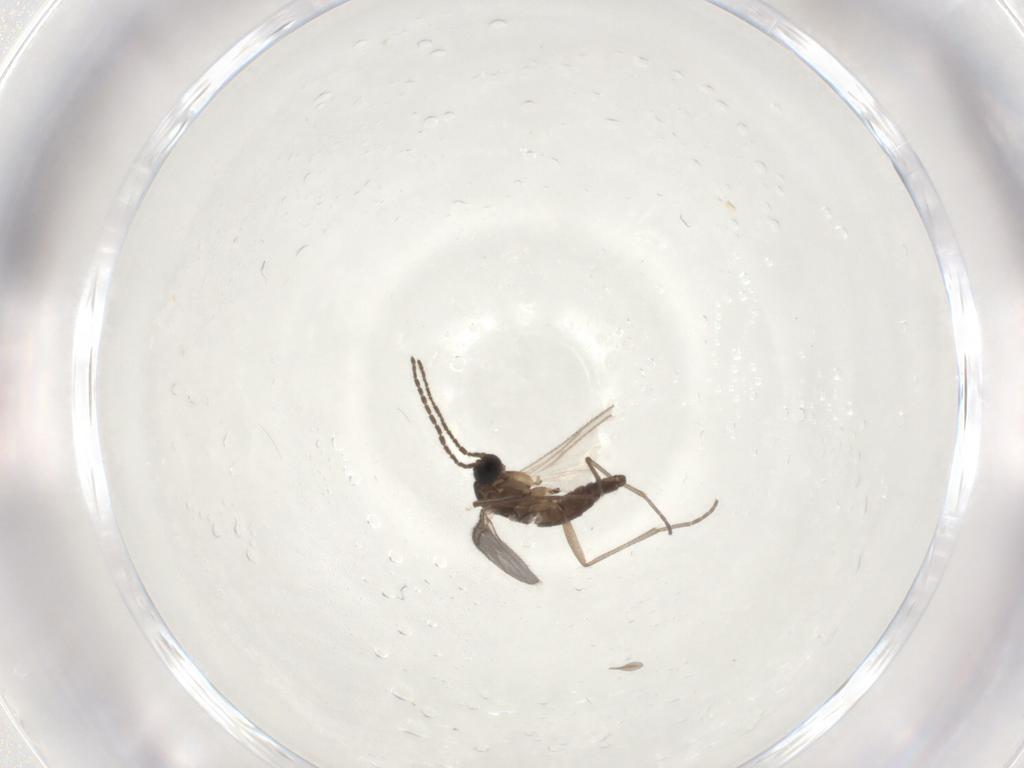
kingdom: Animalia
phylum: Arthropoda
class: Insecta
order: Diptera
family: Sciaridae
